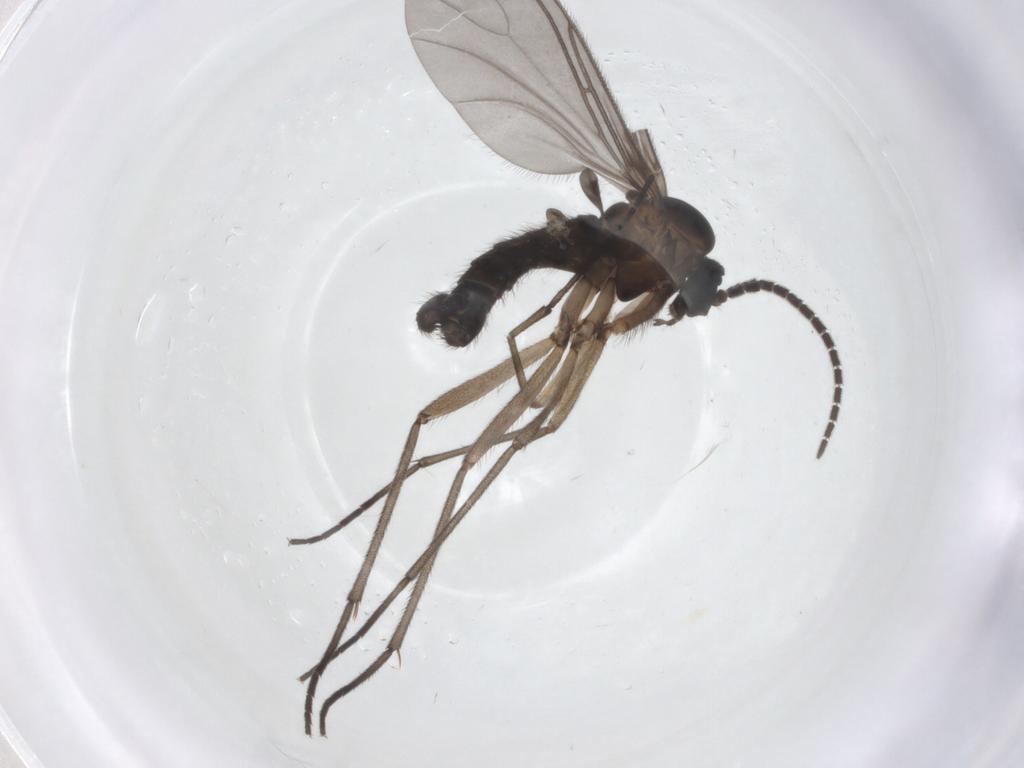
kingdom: Animalia
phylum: Arthropoda
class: Insecta
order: Diptera
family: Sciaridae
